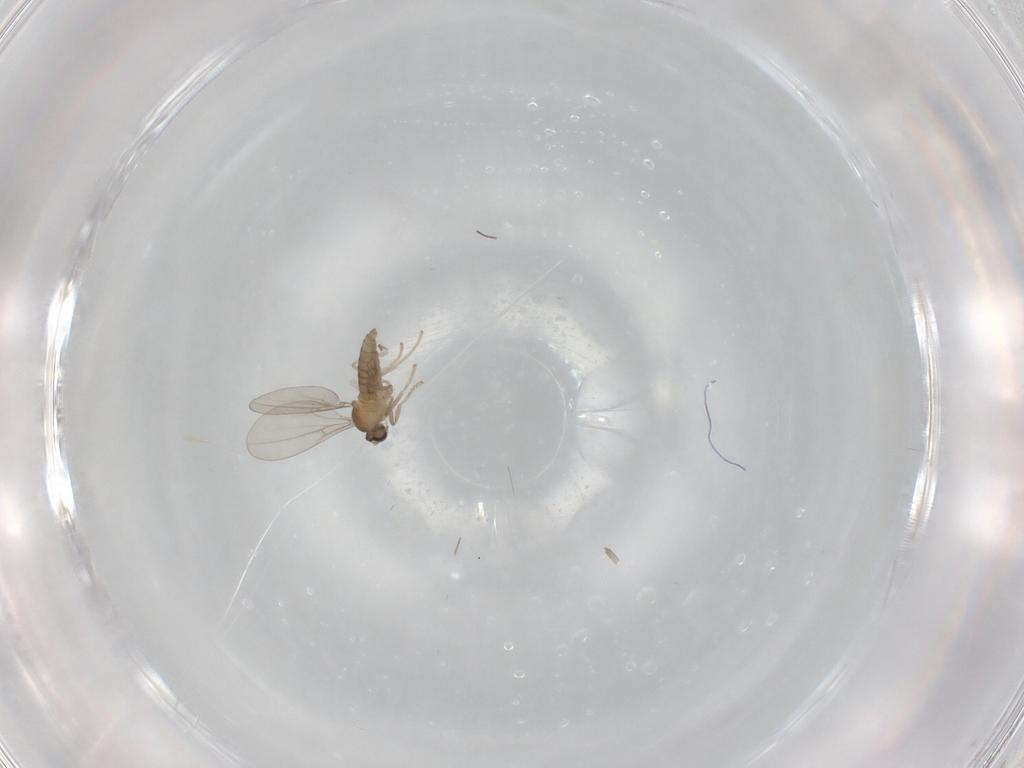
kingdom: Animalia
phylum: Arthropoda
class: Insecta
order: Diptera
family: Cecidomyiidae
